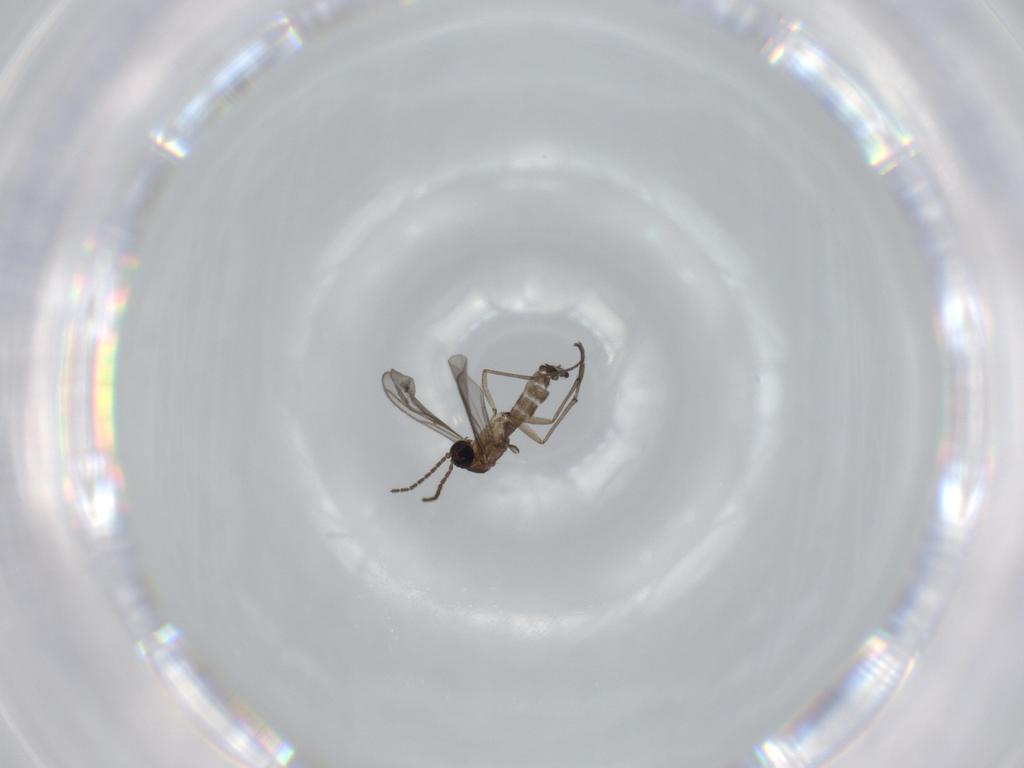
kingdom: Animalia
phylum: Arthropoda
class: Insecta
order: Diptera
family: Sciaridae
